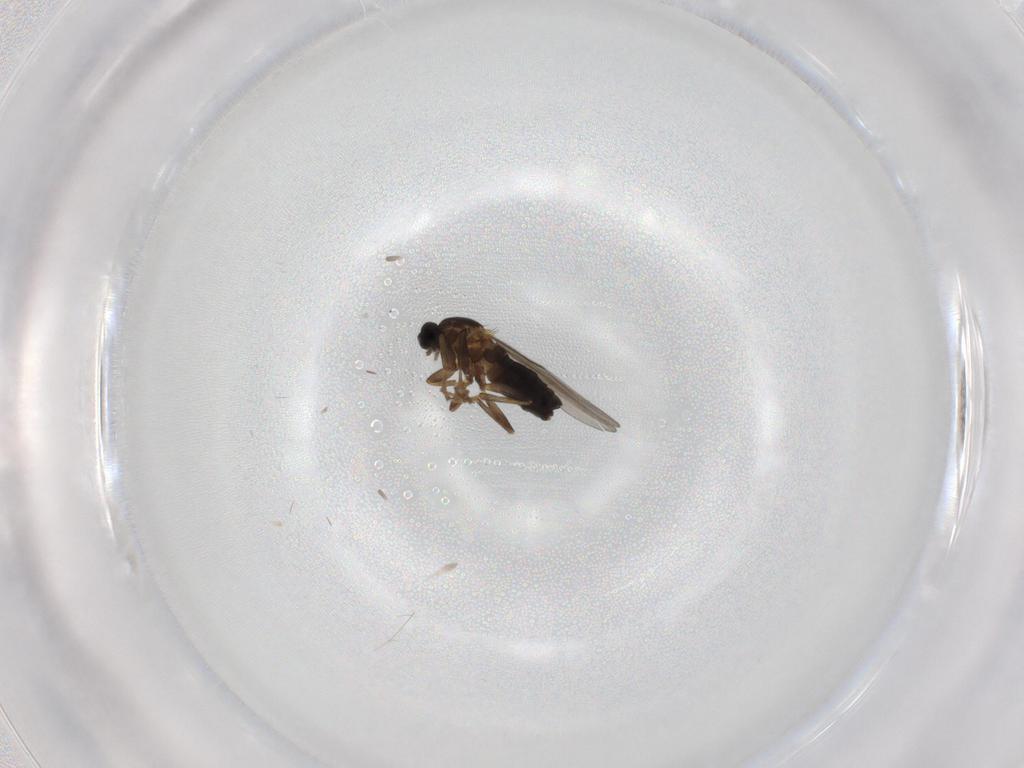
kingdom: Animalia
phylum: Arthropoda
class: Insecta
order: Diptera
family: Scatopsidae
